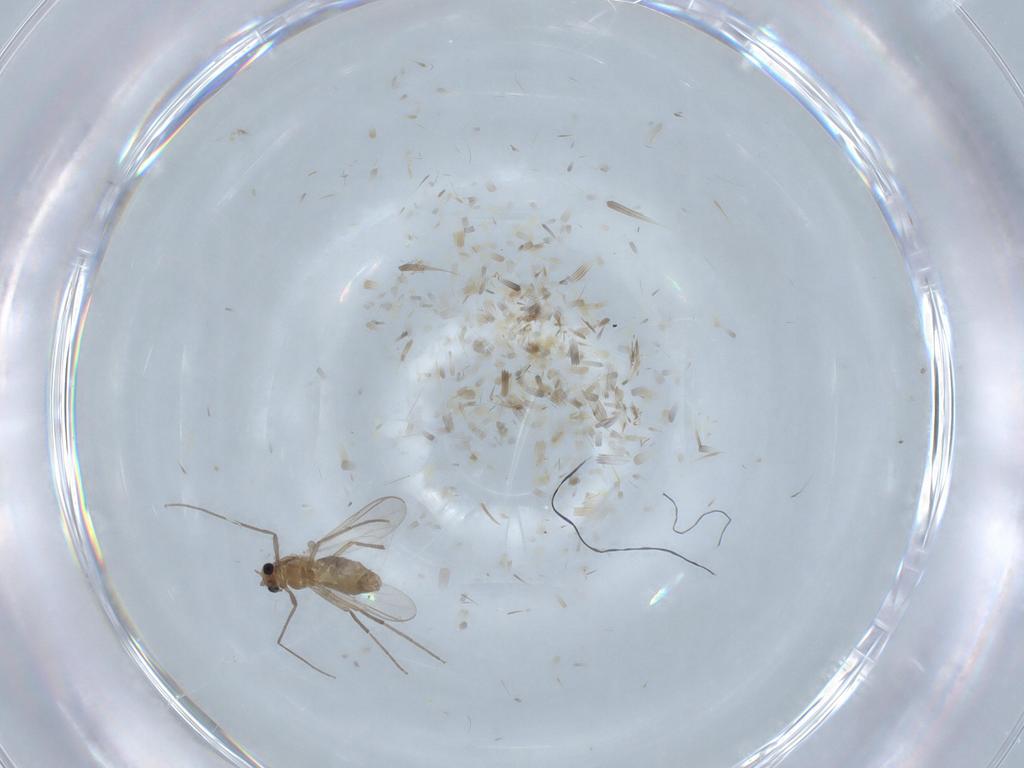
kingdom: Animalia
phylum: Arthropoda
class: Insecta
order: Diptera
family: Chironomidae
